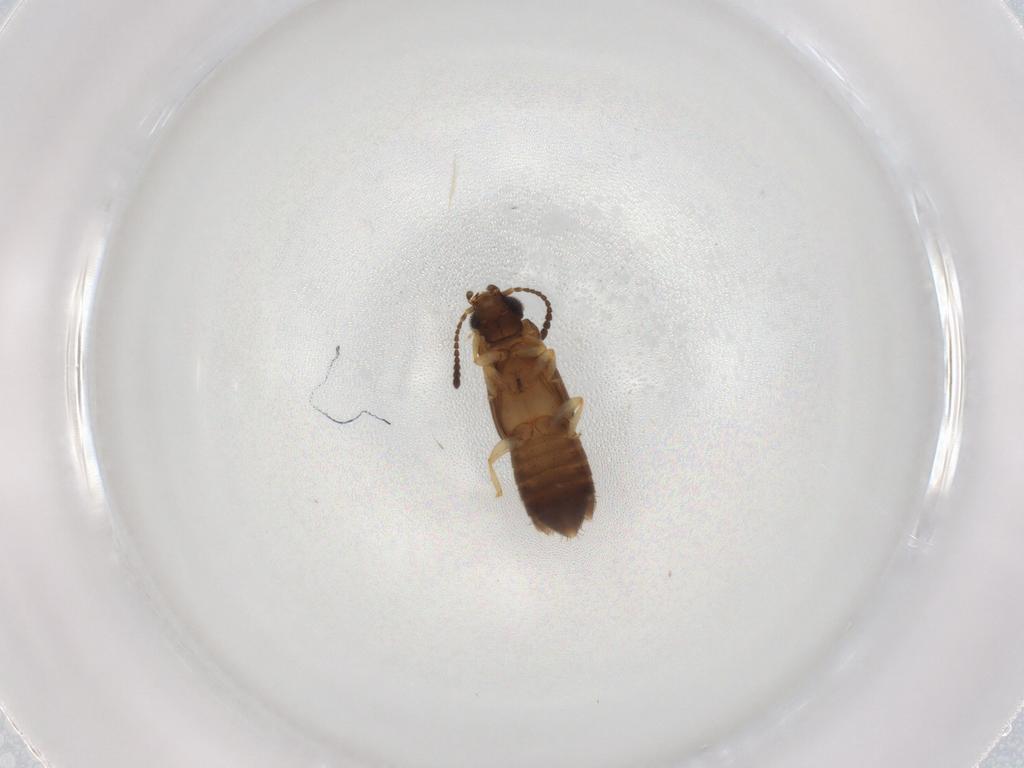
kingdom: Animalia
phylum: Arthropoda
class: Insecta
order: Coleoptera
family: Staphylinidae
